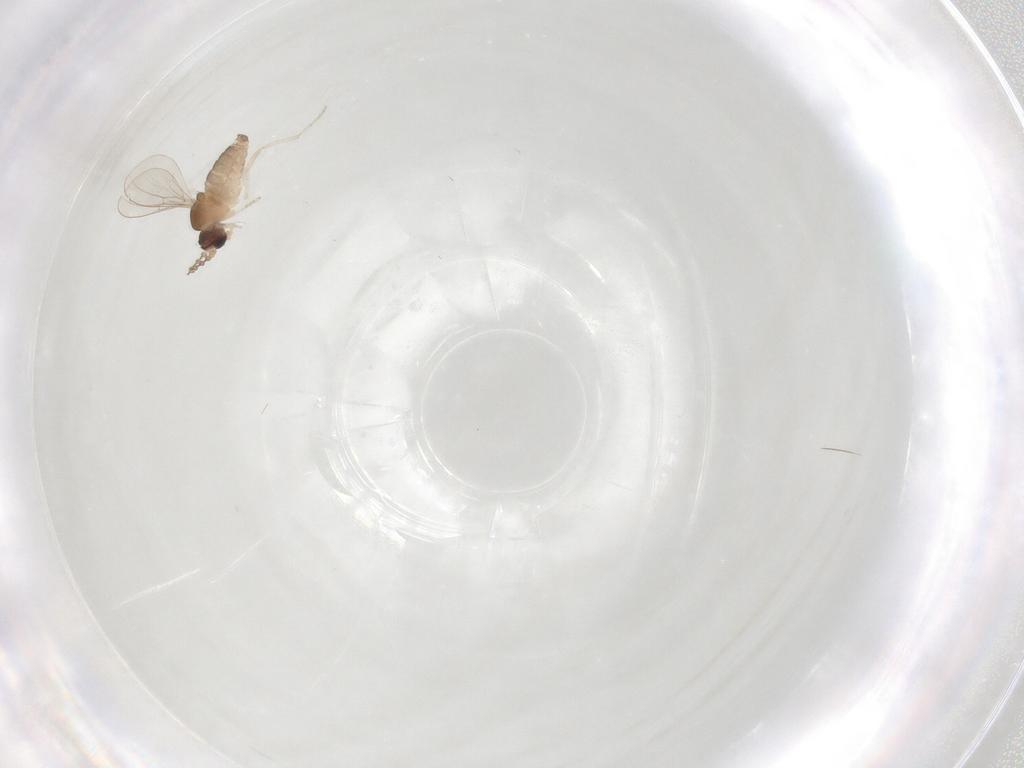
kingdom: Animalia
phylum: Arthropoda
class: Insecta
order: Diptera
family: Cecidomyiidae
